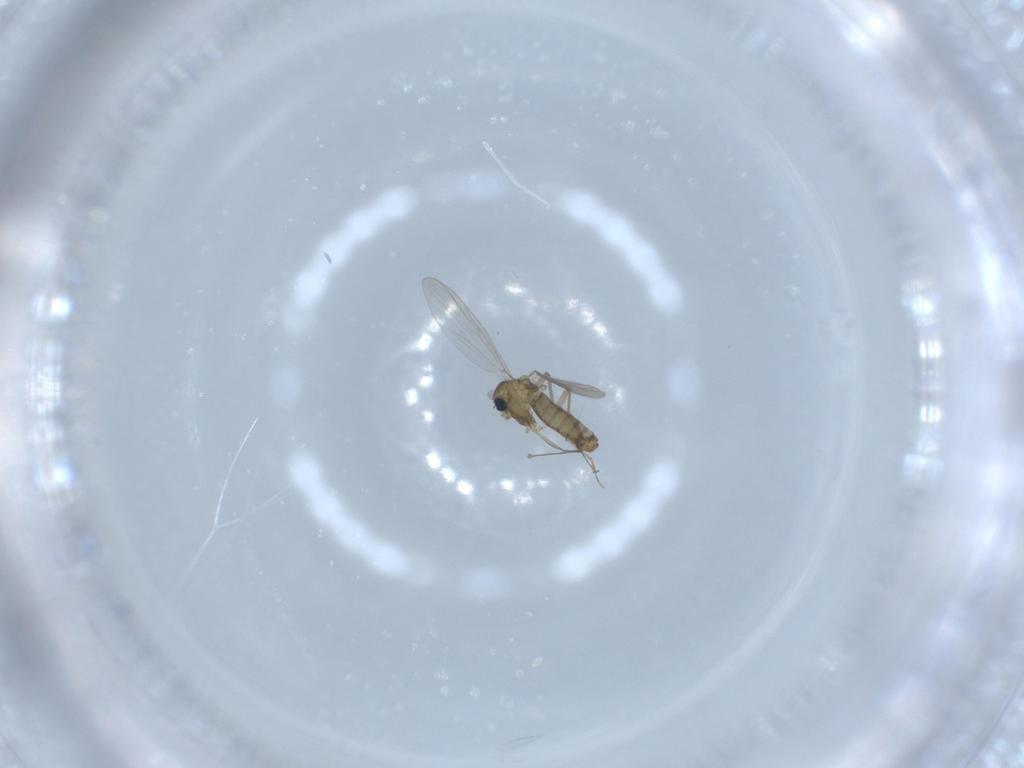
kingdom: Animalia
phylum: Arthropoda
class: Insecta
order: Diptera
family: Chironomidae
